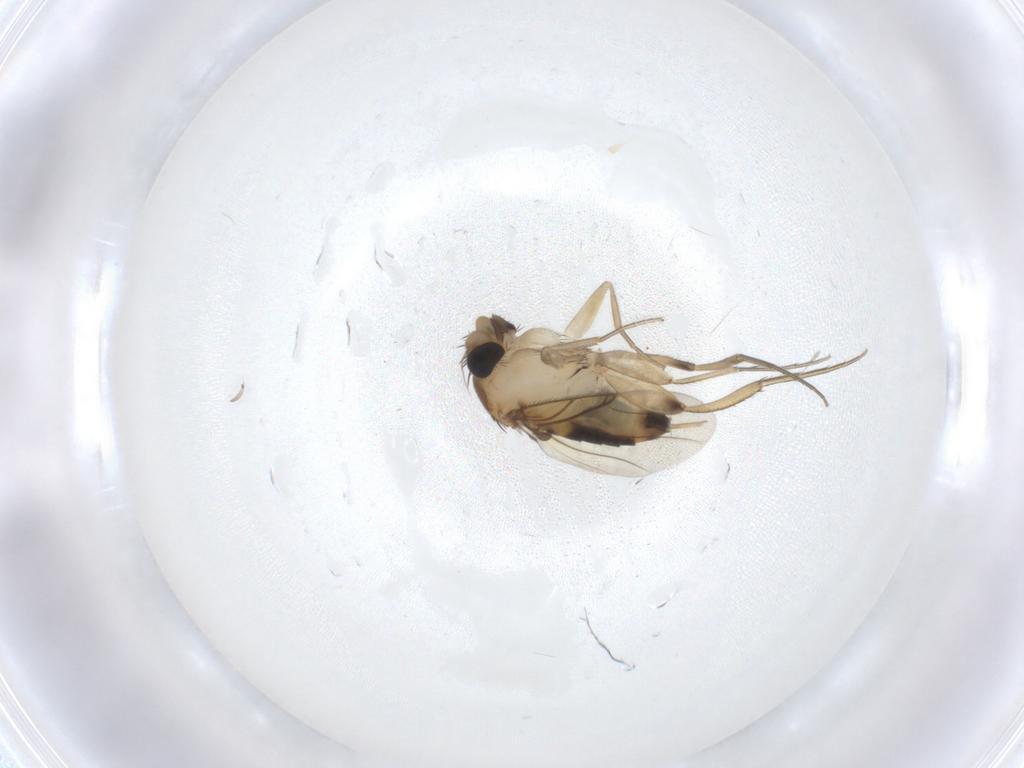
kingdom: Animalia
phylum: Arthropoda
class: Insecta
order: Diptera
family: Phoridae
